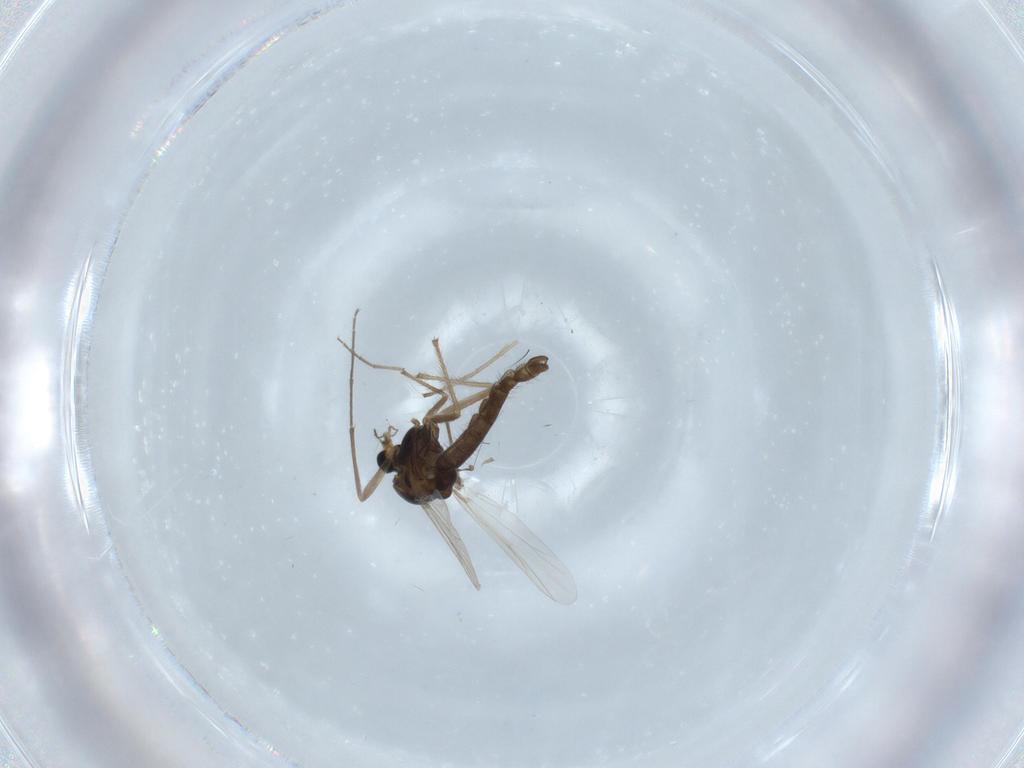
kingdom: Animalia
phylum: Arthropoda
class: Insecta
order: Diptera
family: Chironomidae
